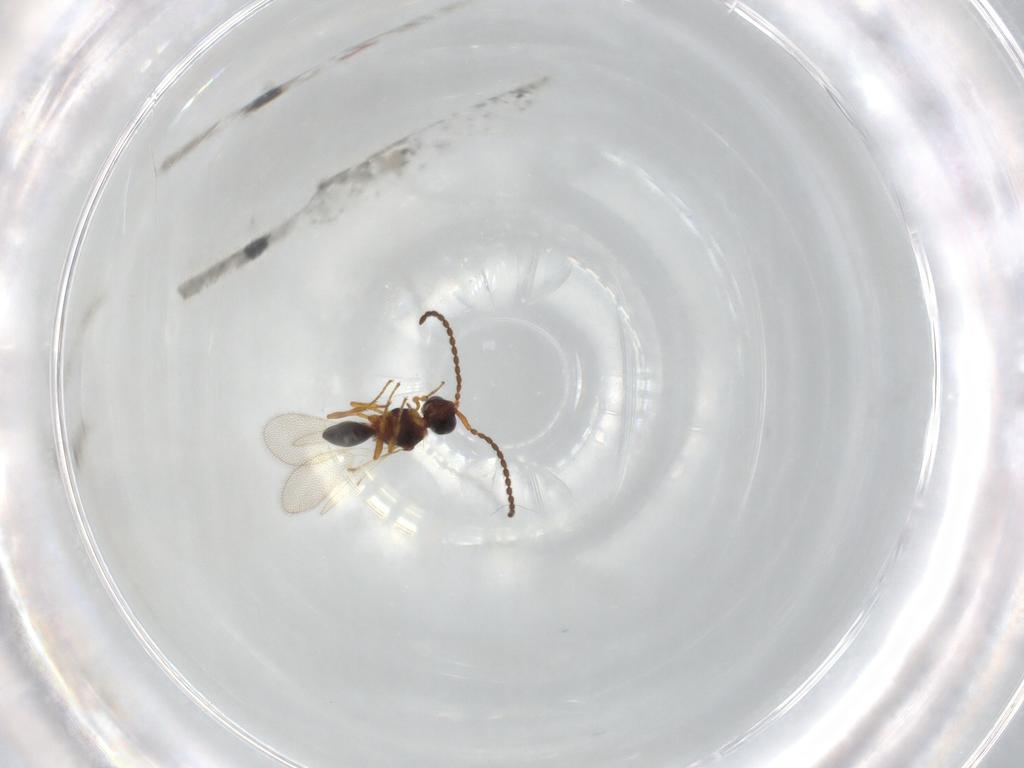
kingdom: Animalia
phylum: Arthropoda
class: Insecta
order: Hymenoptera
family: Diapriidae
